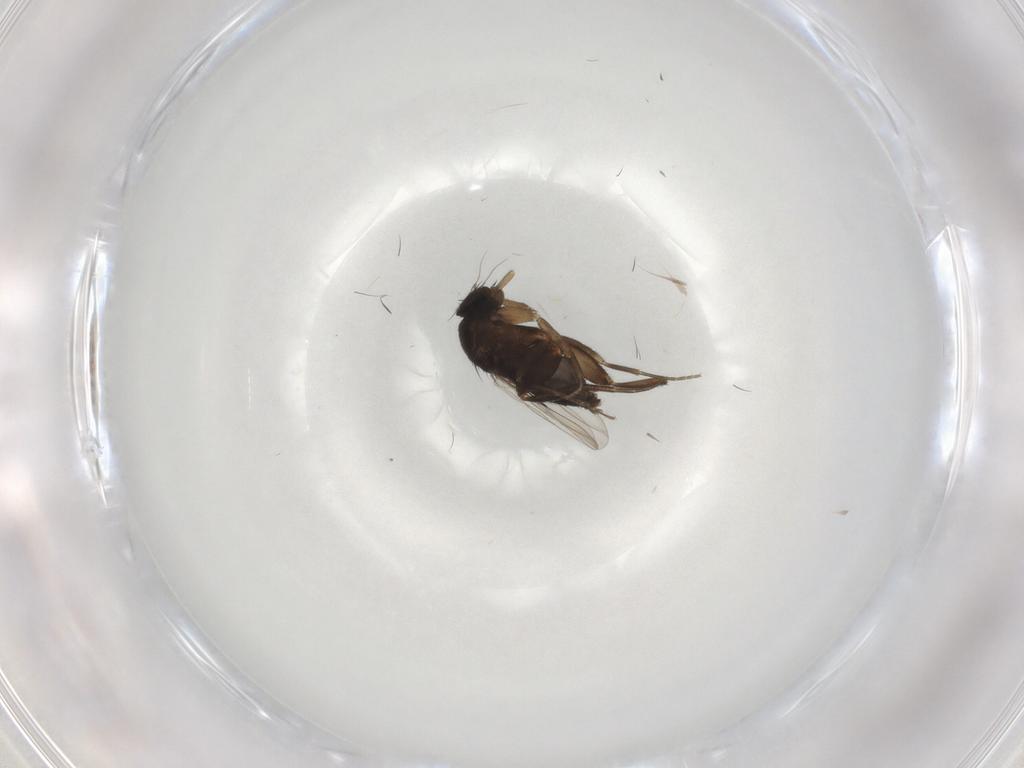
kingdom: Animalia
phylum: Arthropoda
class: Insecta
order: Diptera
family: Phoridae
